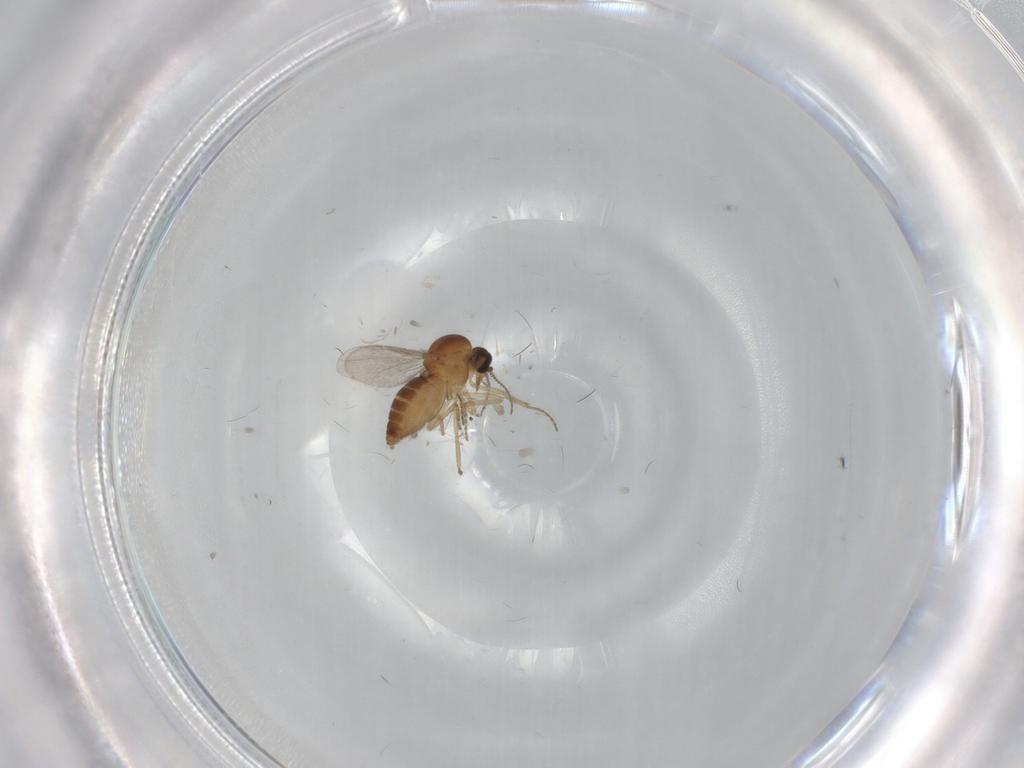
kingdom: Animalia
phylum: Arthropoda
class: Insecta
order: Diptera
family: Ceratopogonidae
